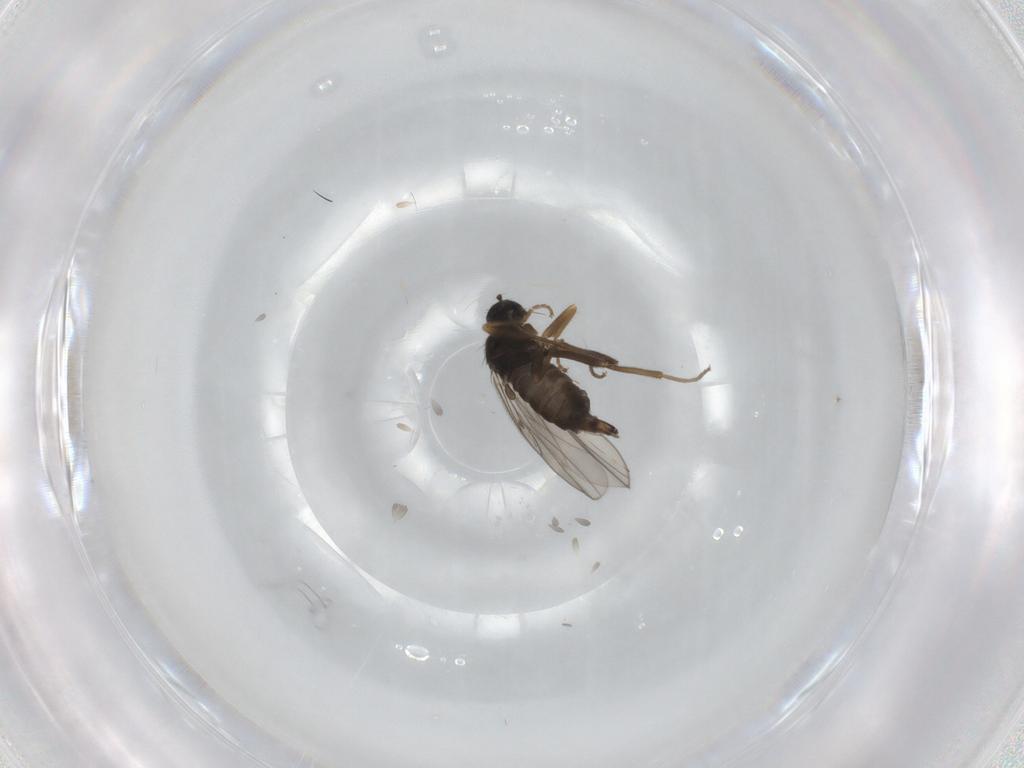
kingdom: Animalia
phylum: Arthropoda
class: Insecta
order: Diptera
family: Hybotidae
